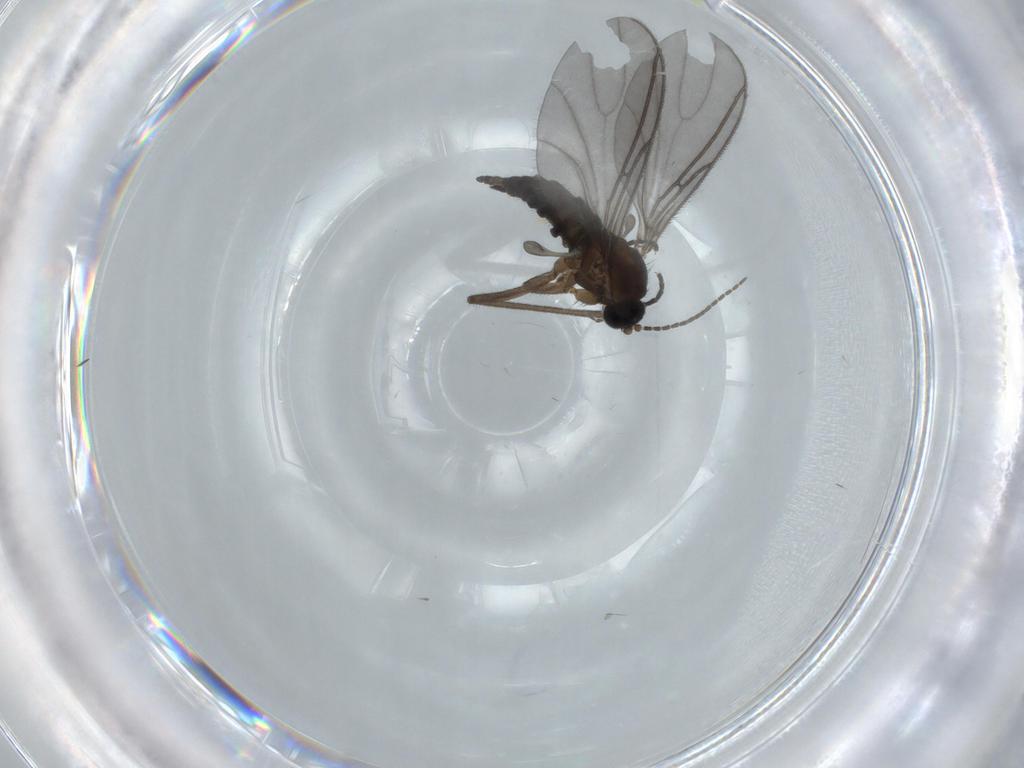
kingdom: Animalia
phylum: Arthropoda
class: Insecta
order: Diptera
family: Sciaridae
